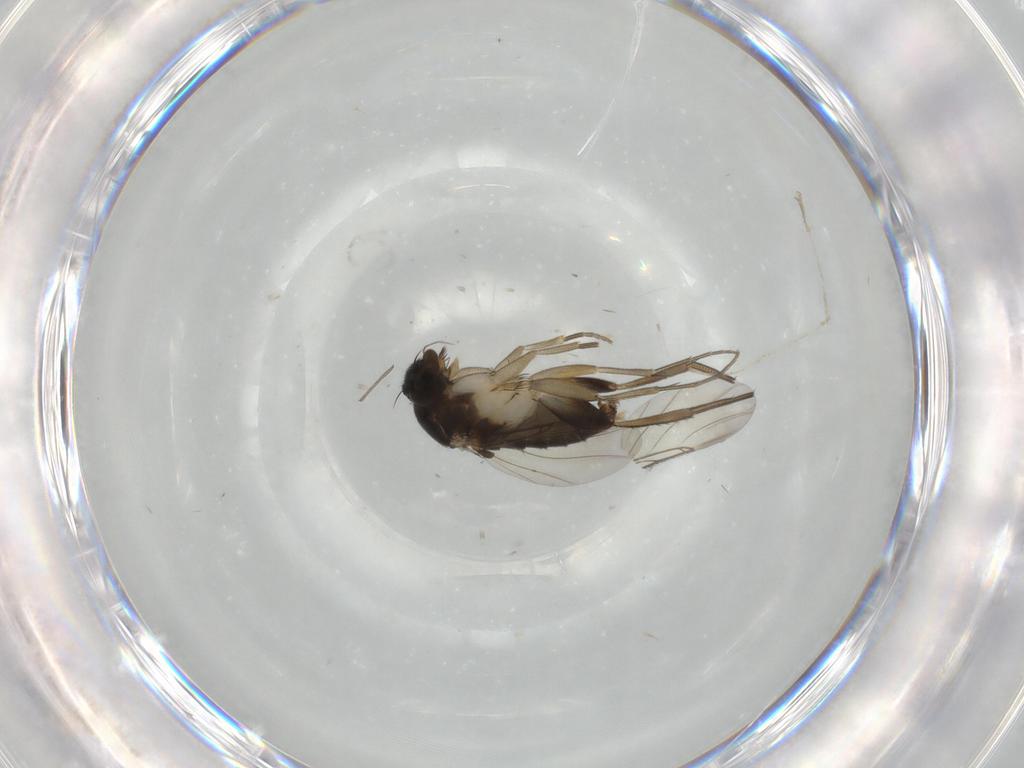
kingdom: Animalia
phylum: Arthropoda
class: Insecta
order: Diptera
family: Phoridae
